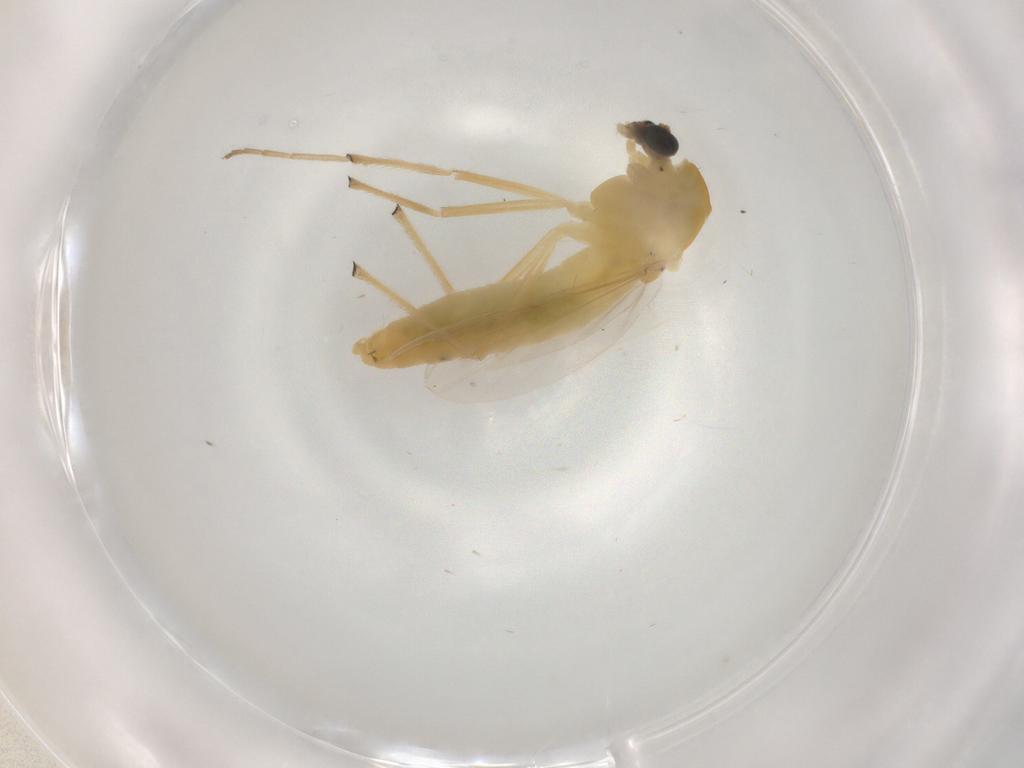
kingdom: Animalia
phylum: Arthropoda
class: Insecta
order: Diptera
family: Chironomidae
